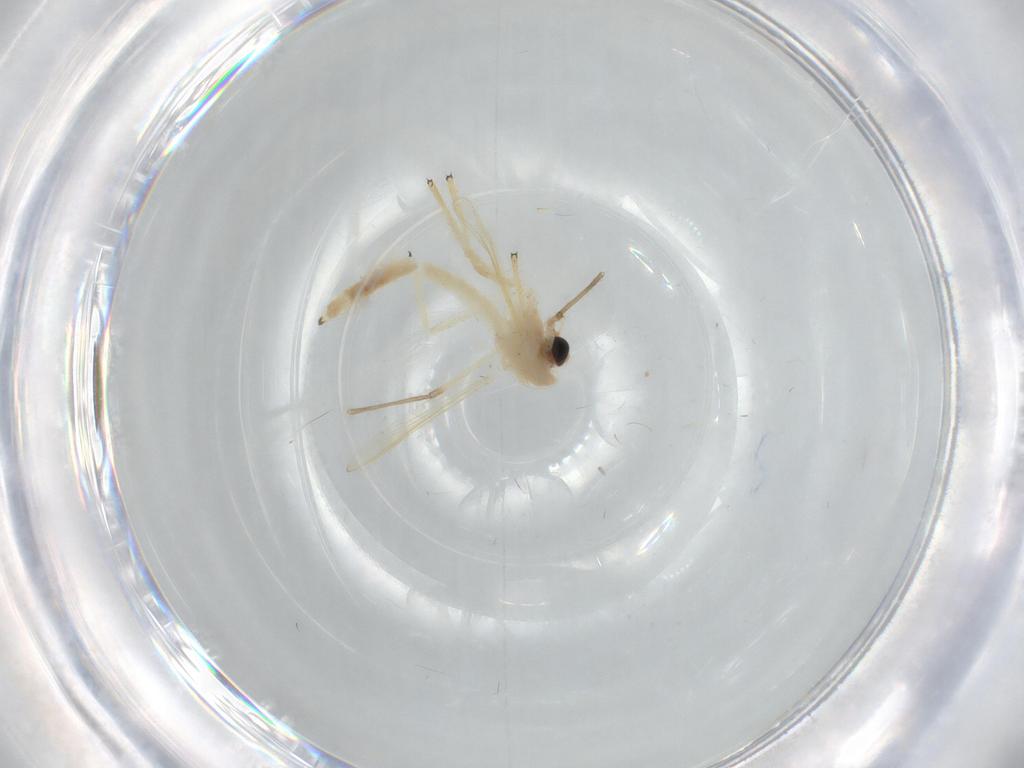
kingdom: Animalia
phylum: Arthropoda
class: Insecta
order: Diptera
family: Chironomidae
